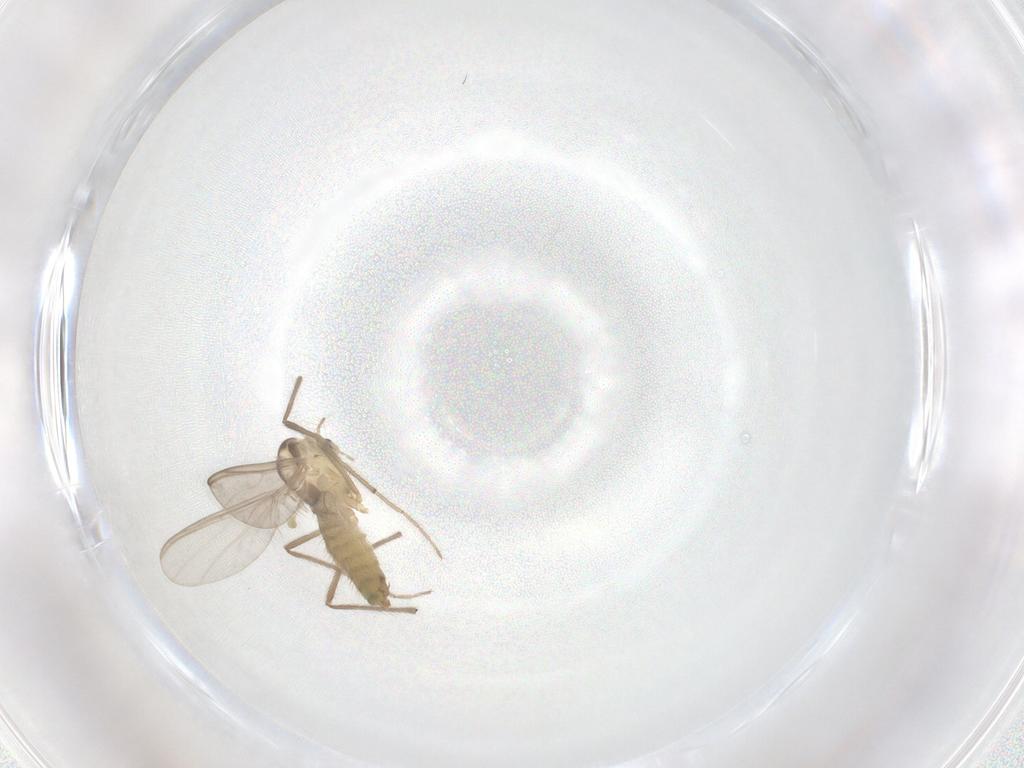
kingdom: Animalia
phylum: Arthropoda
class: Insecta
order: Diptera
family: Chironomidae
